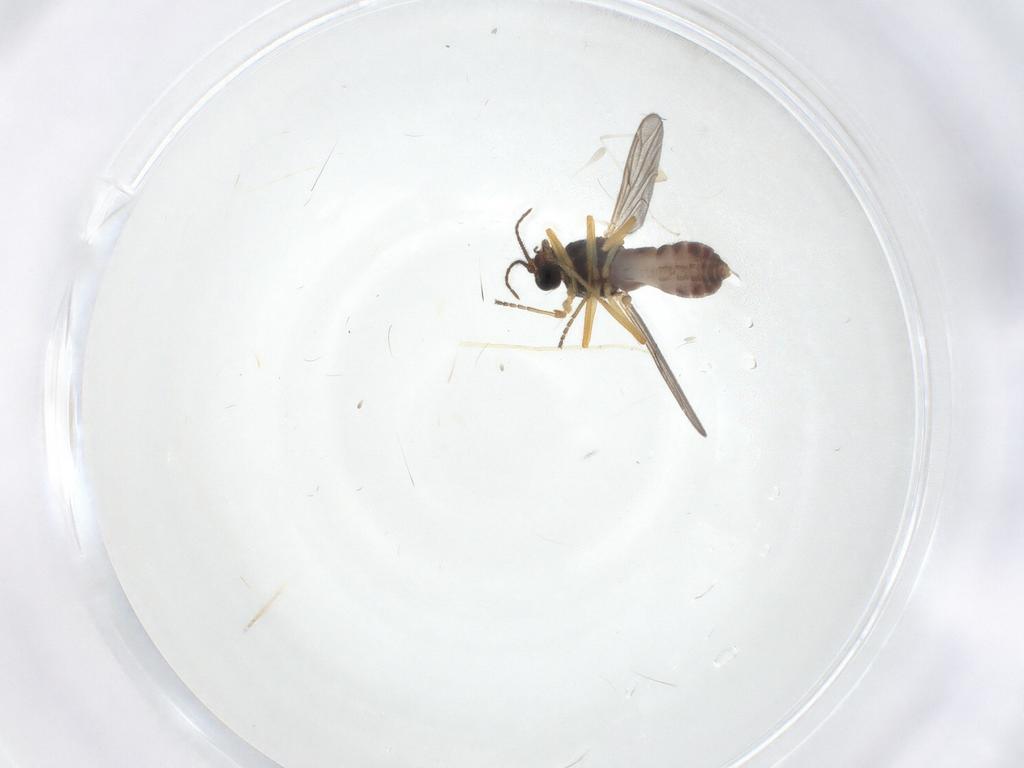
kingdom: Animalia
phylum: Arthropoda
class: Insecta
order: Diptera
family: Ceratopogonidae
